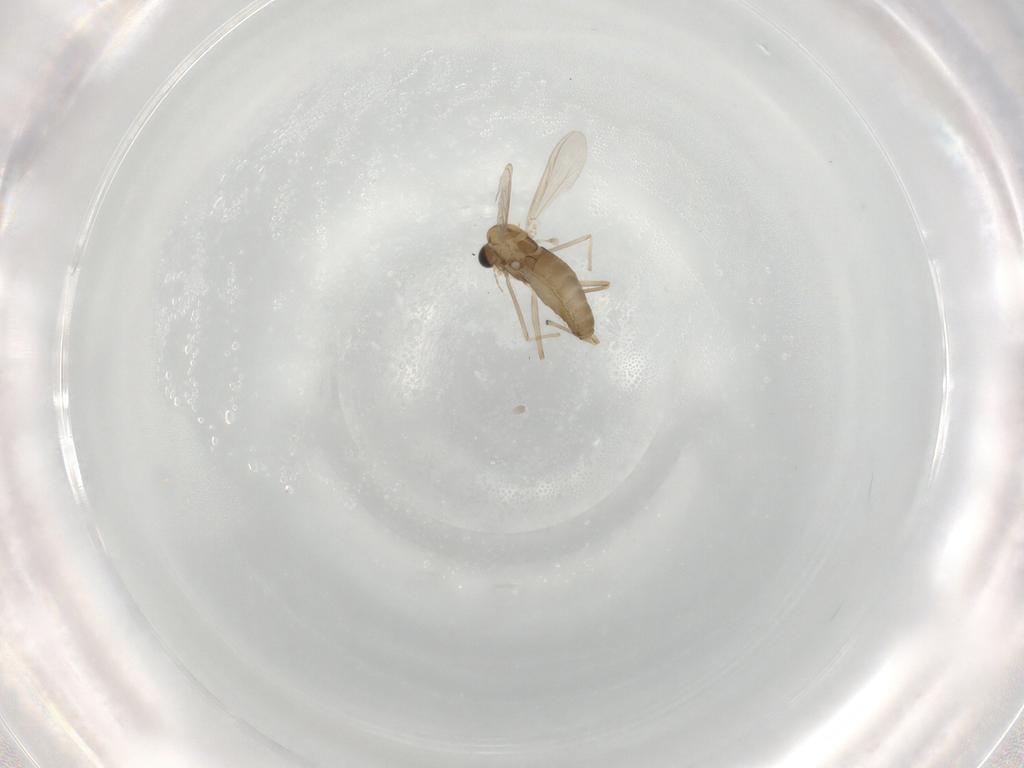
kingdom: Animalia
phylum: Arthropoda
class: Insecta
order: Diptera
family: Chironomidae
